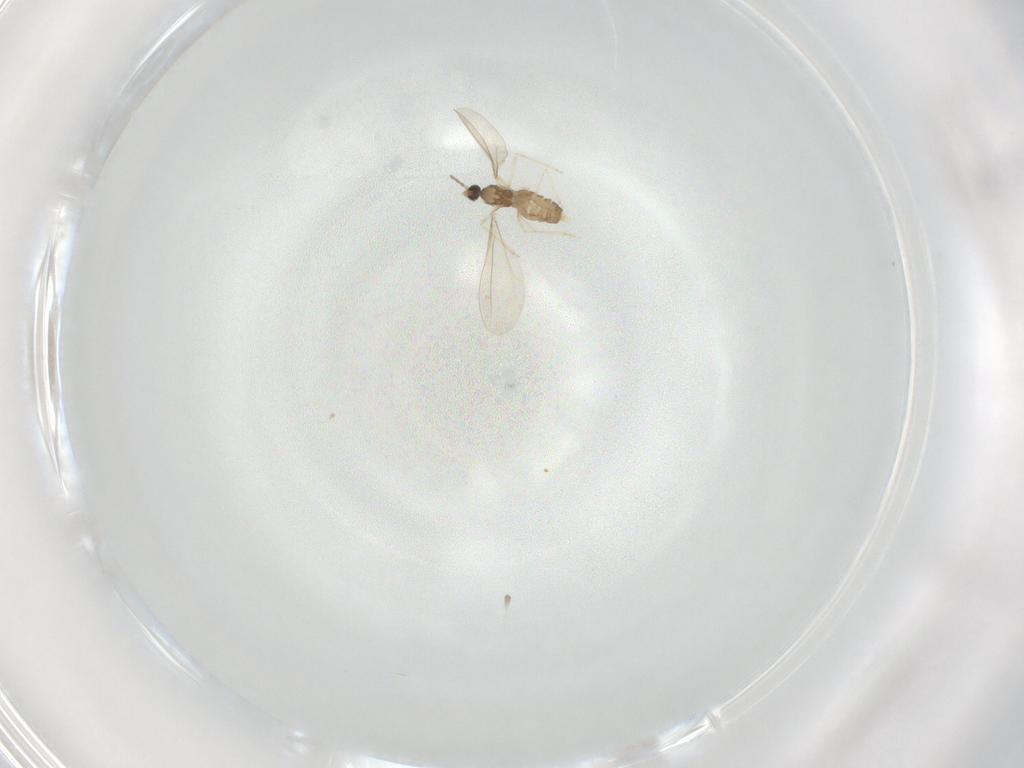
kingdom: Animalia
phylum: Arthropoda
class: Insecta
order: Diptera
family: Cecidomyiidae
